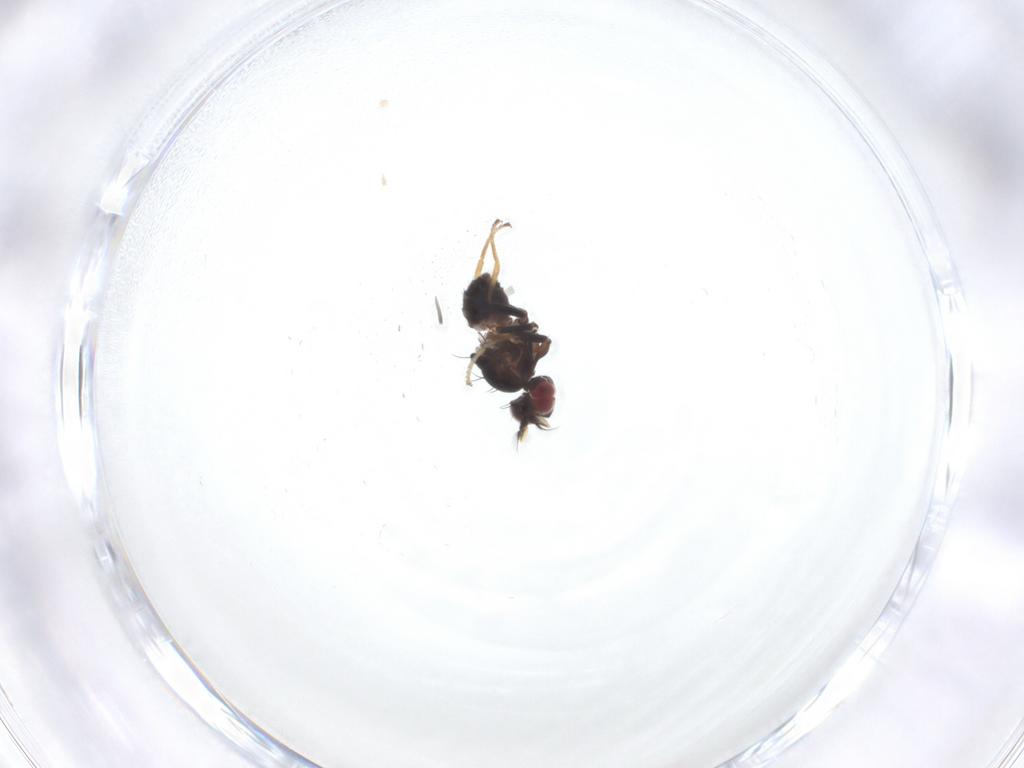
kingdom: Animalia
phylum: Arthropoda
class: Insecta
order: Diptera
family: Ephydridae
